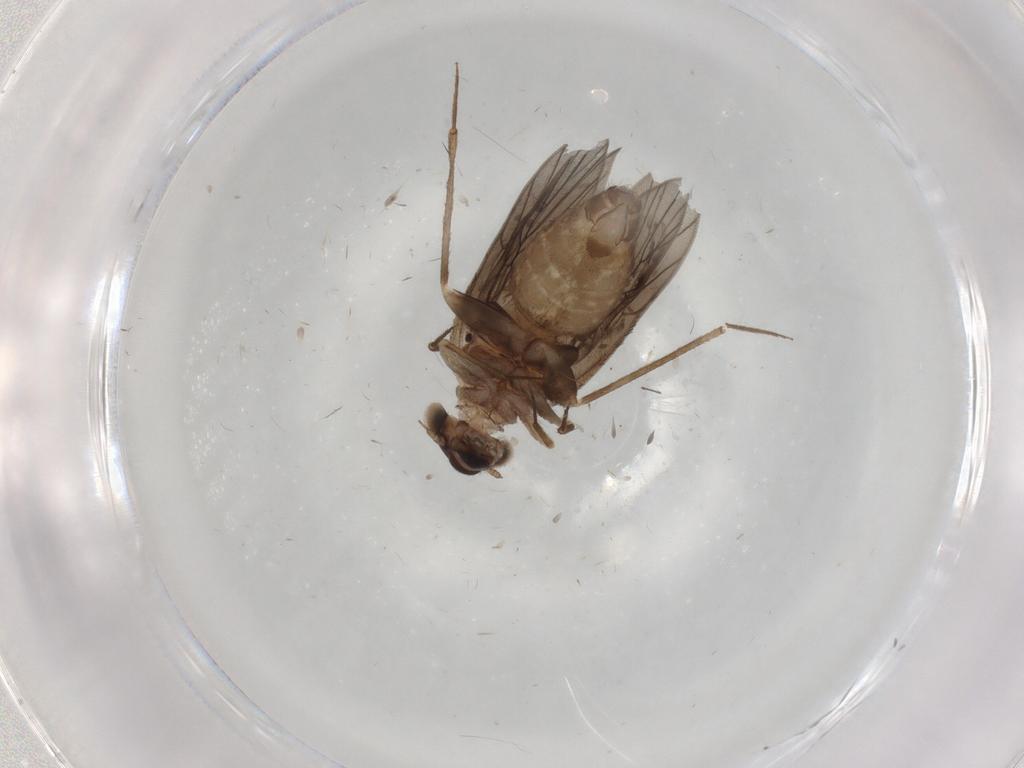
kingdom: Animalia
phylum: Arthropoda
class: Insecta
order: Psocodea
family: Lepidopsocidae
